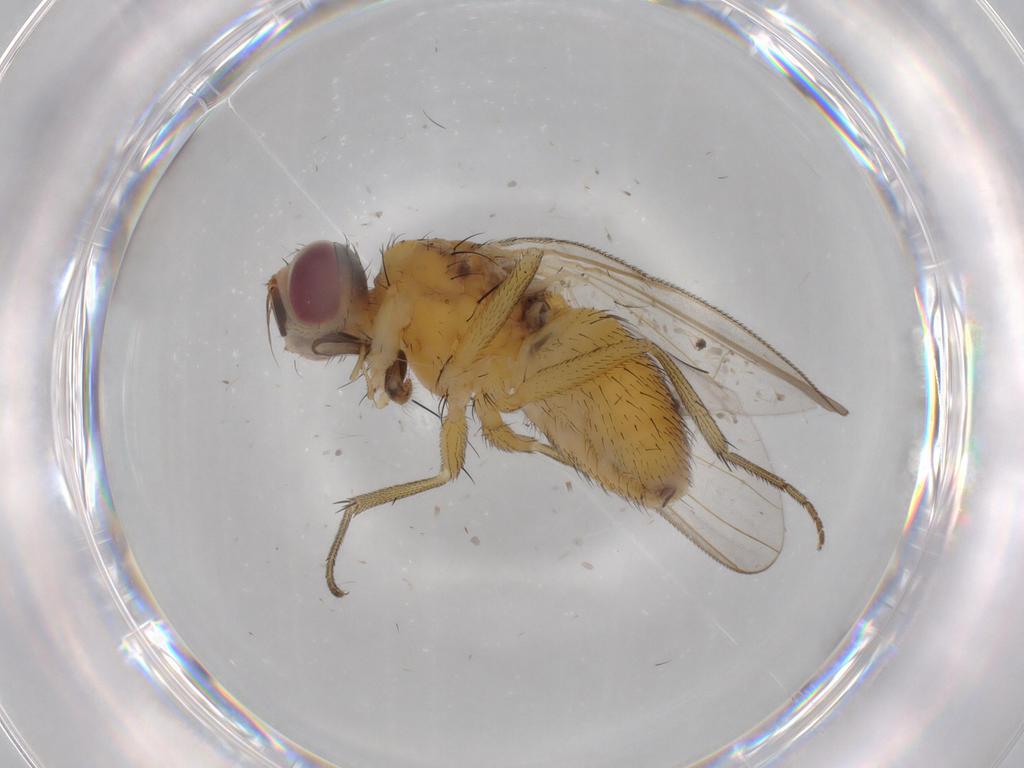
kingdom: Animalia
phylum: Arthropoda
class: Insecta
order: Diptera
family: Muscidae
